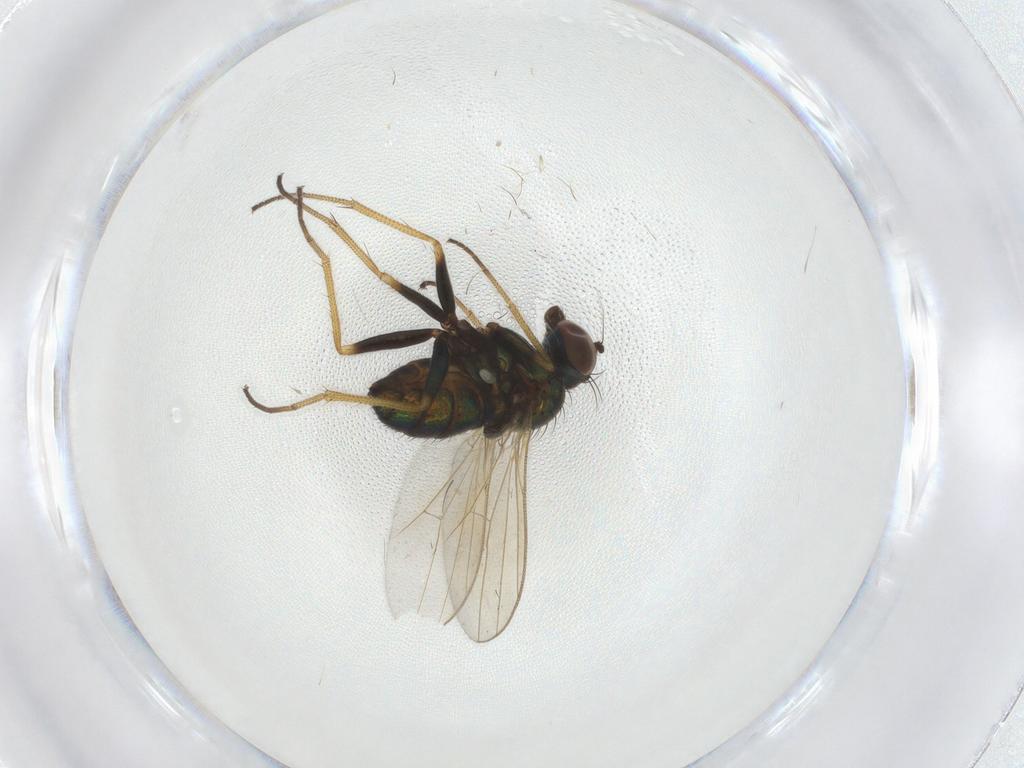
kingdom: Animalia
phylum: Arthropoda
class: Insecta
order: Diptera
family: Dolichopodidae
